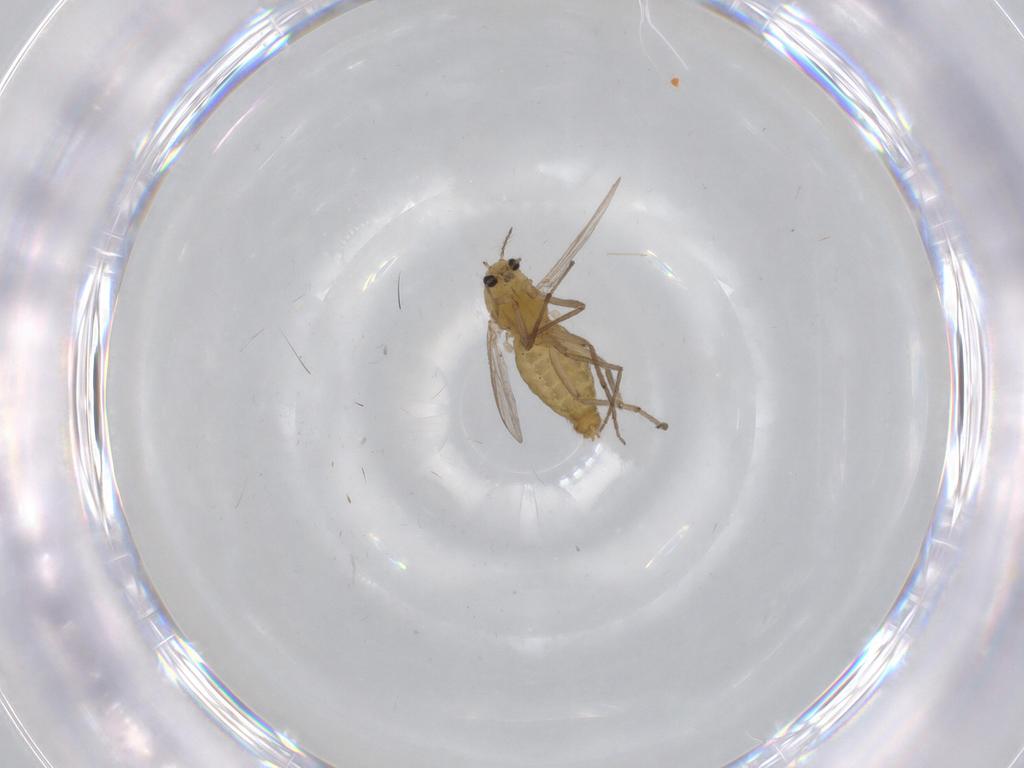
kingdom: Animalia
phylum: Arthropoda
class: Insecta
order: Diptera
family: Chironomidae
